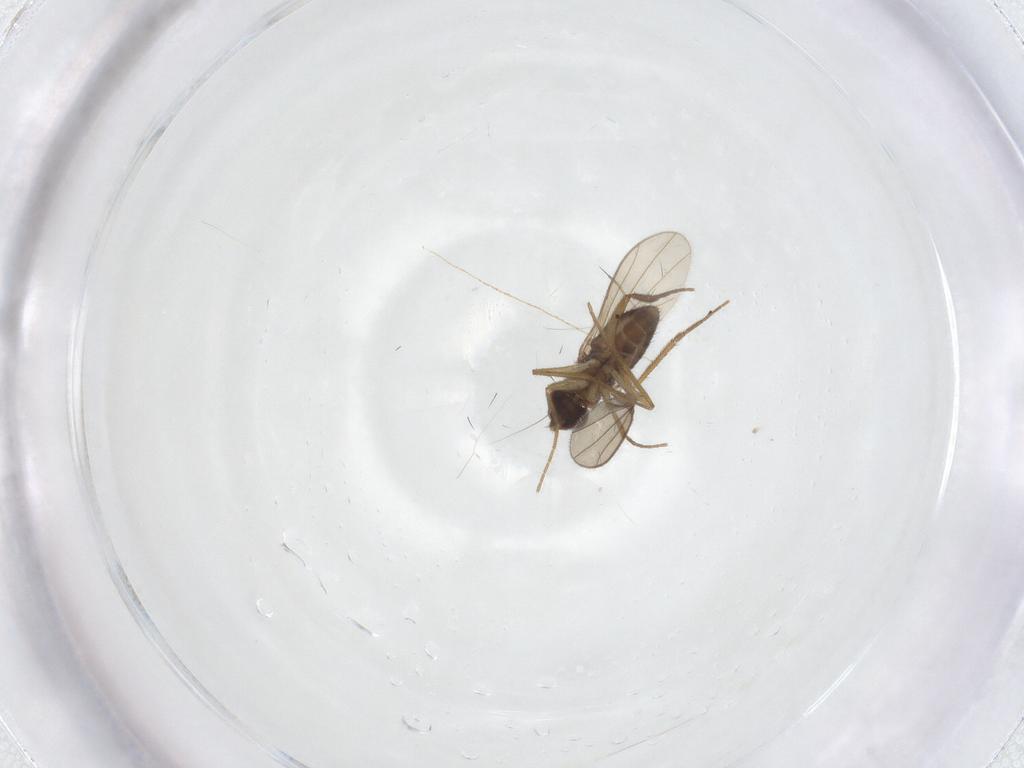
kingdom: Animalia
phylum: Arthropoda
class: Insecta
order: Diptera
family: Dolichopodidae
